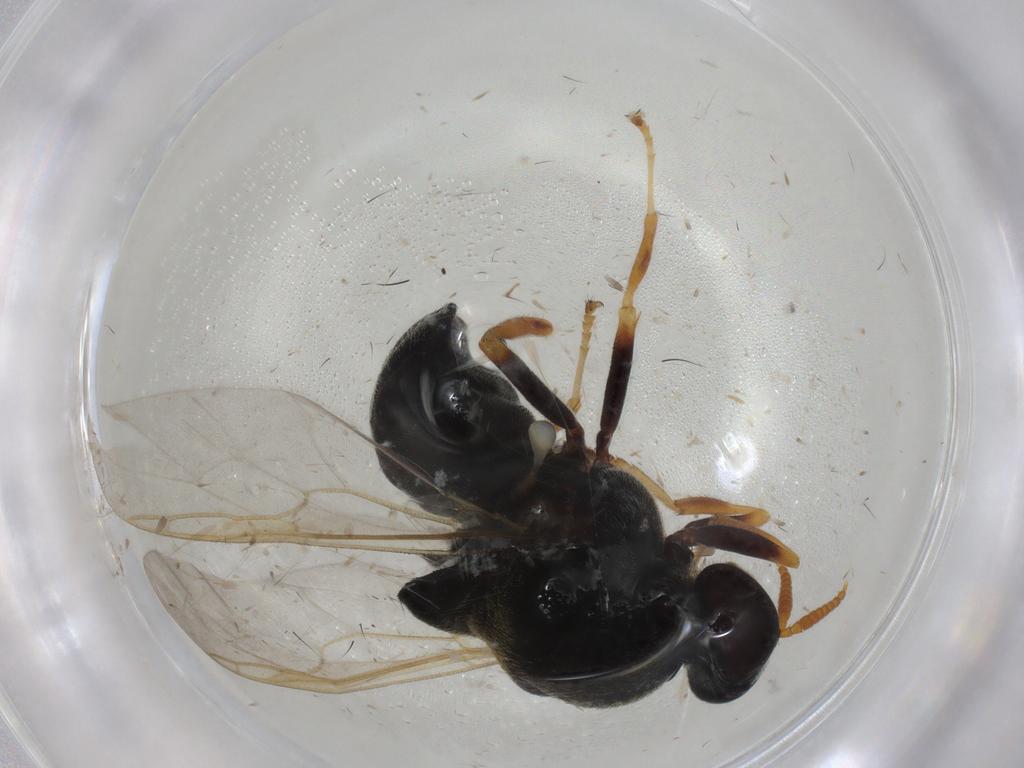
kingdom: Animalia
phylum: Arthropoda
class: Insecta
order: Diptera
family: Stratiomyidae
